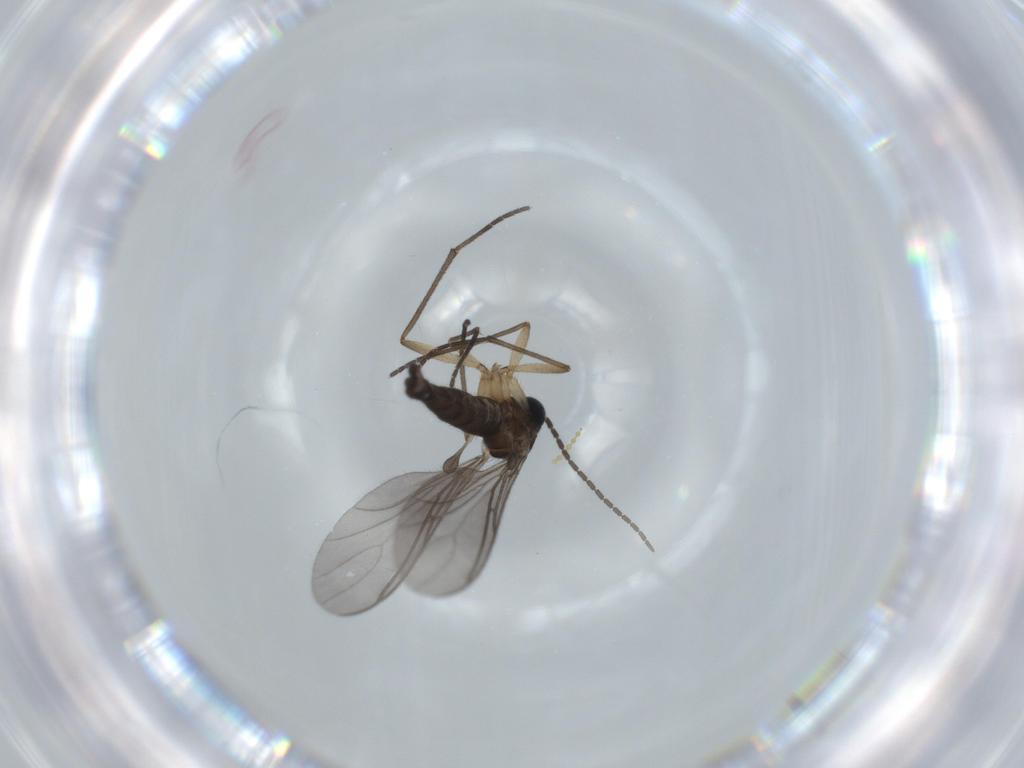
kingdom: Animalia
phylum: Arthropoda
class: Insecta
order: Diptera
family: Sciaridae
